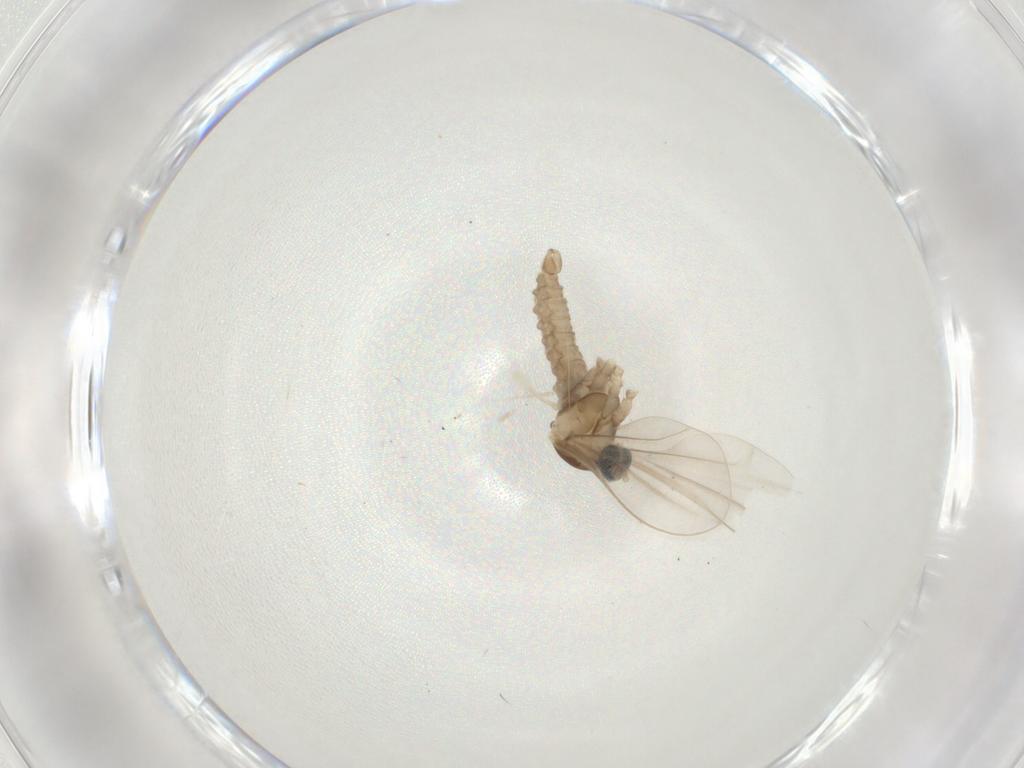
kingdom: Animalia
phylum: Arthropoda
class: Insecta
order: Diptera
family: Cecidomyiidae
